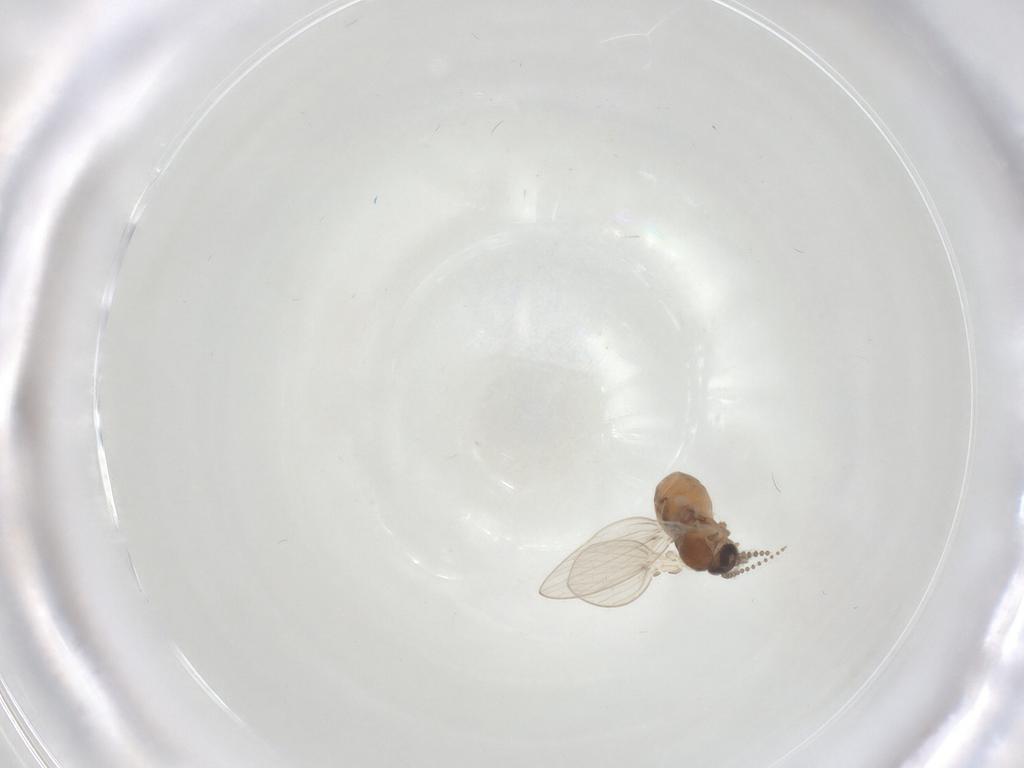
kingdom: Animalia
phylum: Arthropoda
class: Insecta
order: Diptera
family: Psychodidae
